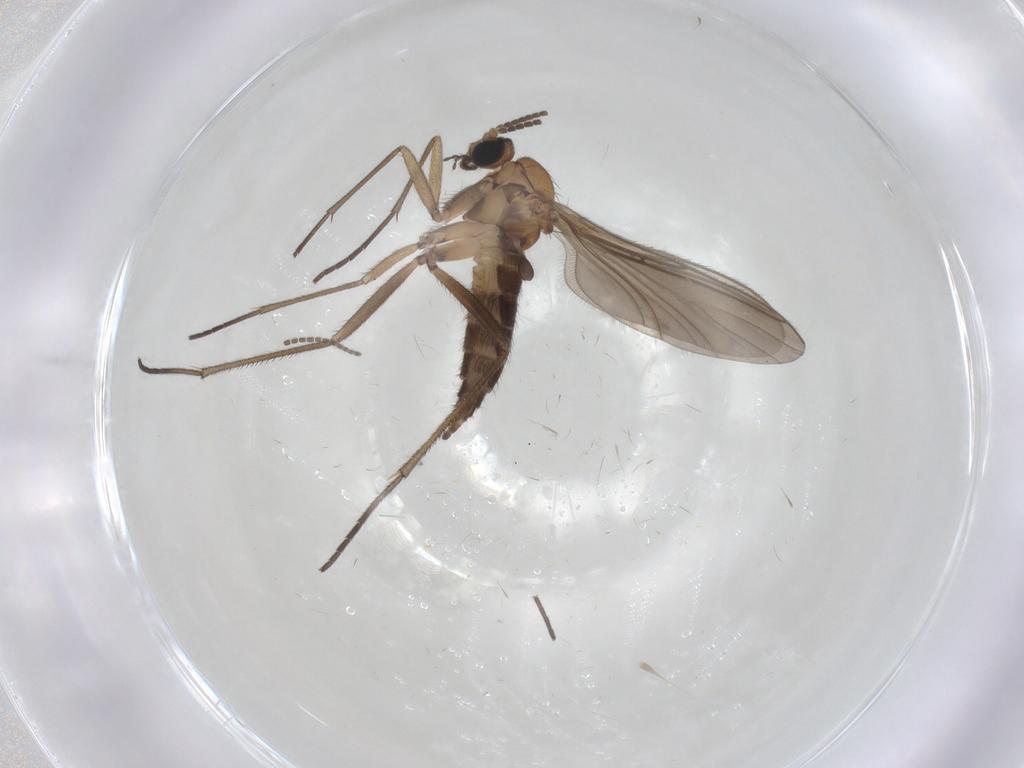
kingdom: Animalia
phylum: Arthropoda
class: Insecta
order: Diptera
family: Sciaridae
